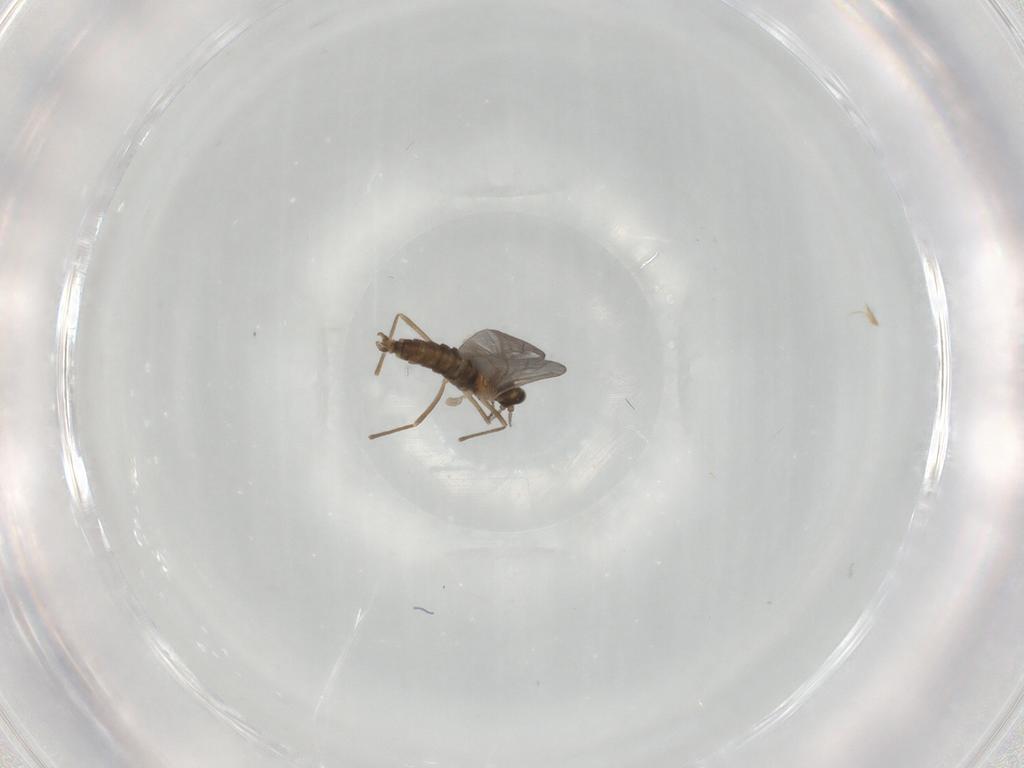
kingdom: Animalia
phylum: Arthropoda
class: Insecta
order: Diptera
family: Cecidomyiidae
